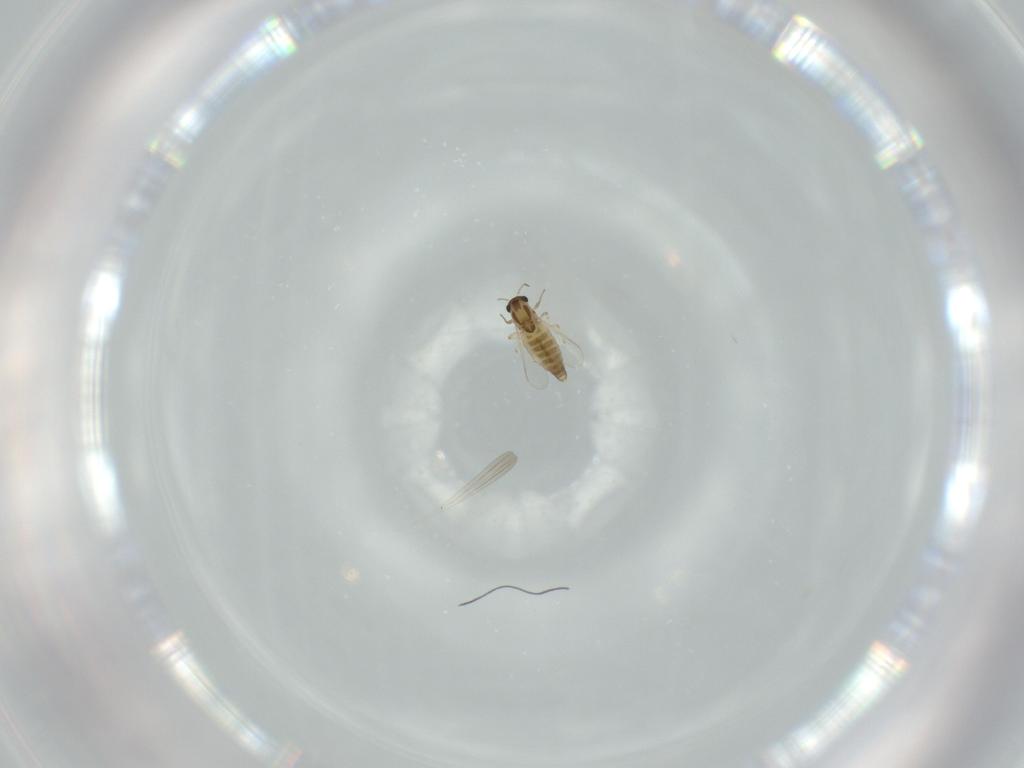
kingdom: Animalia
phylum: Arthropoda
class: Insecta
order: Diptera
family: Chironomidae
